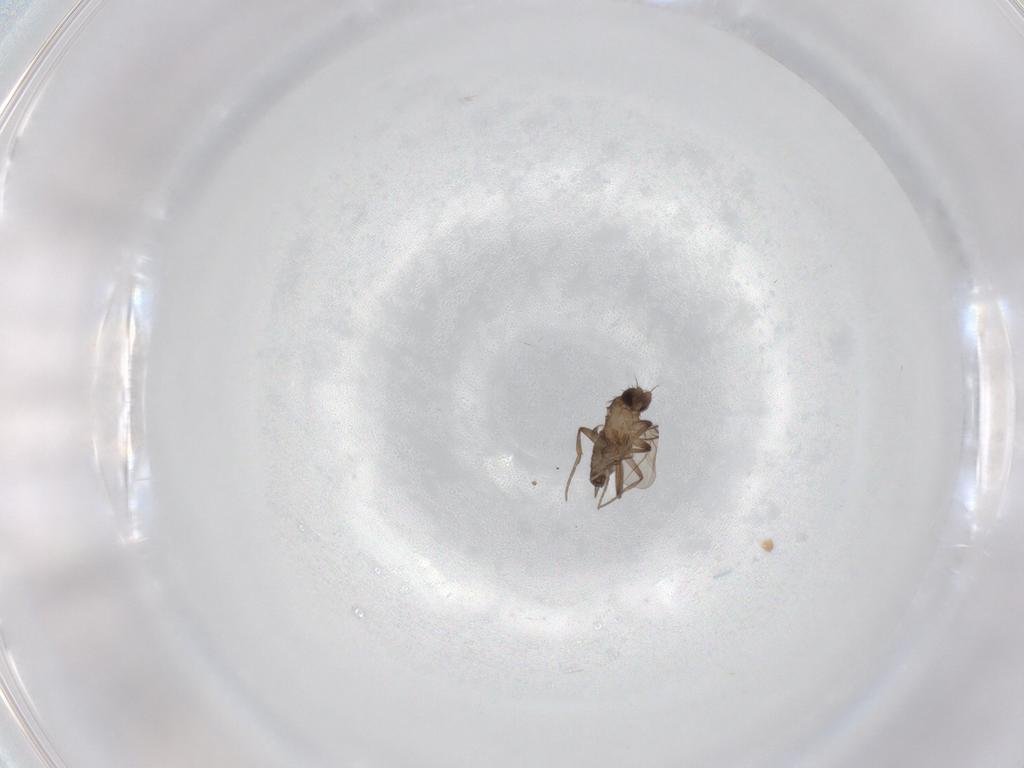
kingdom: Animalia
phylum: Arthropoda
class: Insecta
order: Diptera
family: Phoridae
